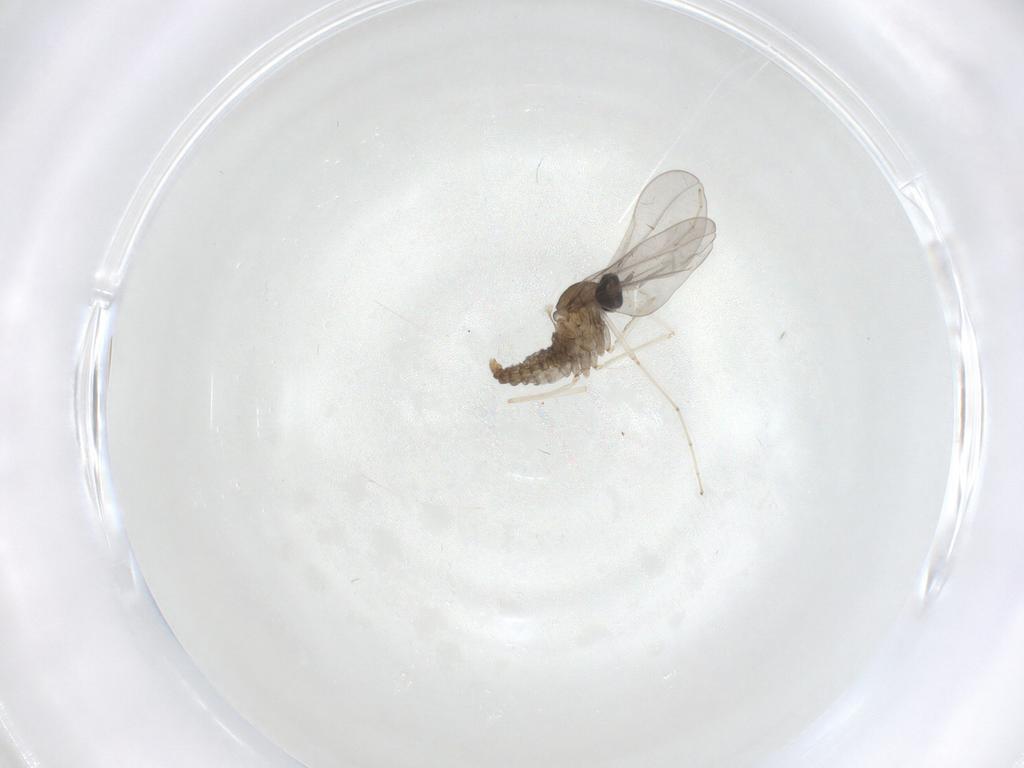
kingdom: Animalia
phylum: Arthropoda
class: Insecta
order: Diptera
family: Cecidomyiidae
